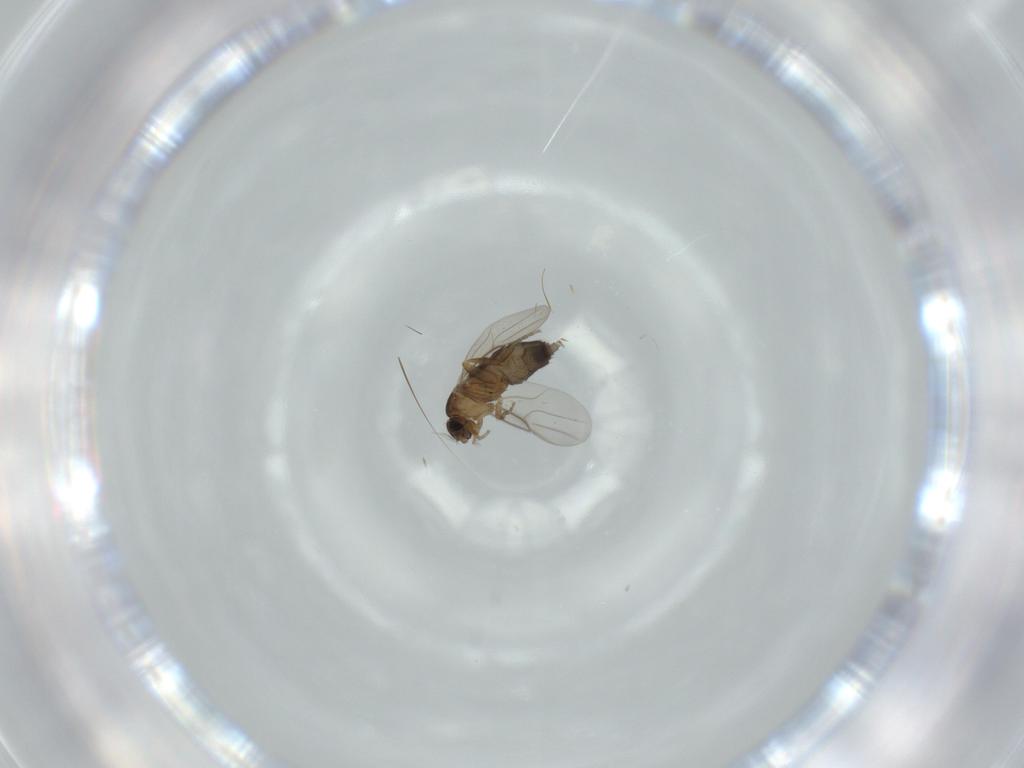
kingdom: Animalia
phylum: Arthropoda
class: Insecta
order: Diptera
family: Phoridae
